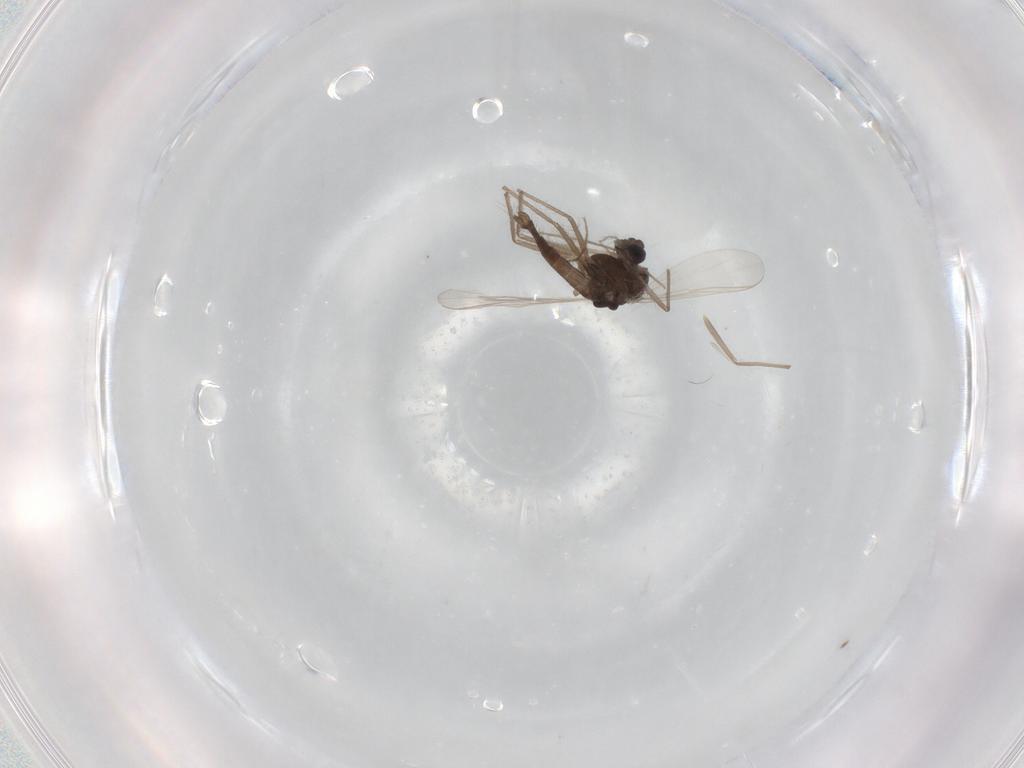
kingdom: Animalia
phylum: Arthropoda
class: Insecta
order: Diptera
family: Chironomidae
